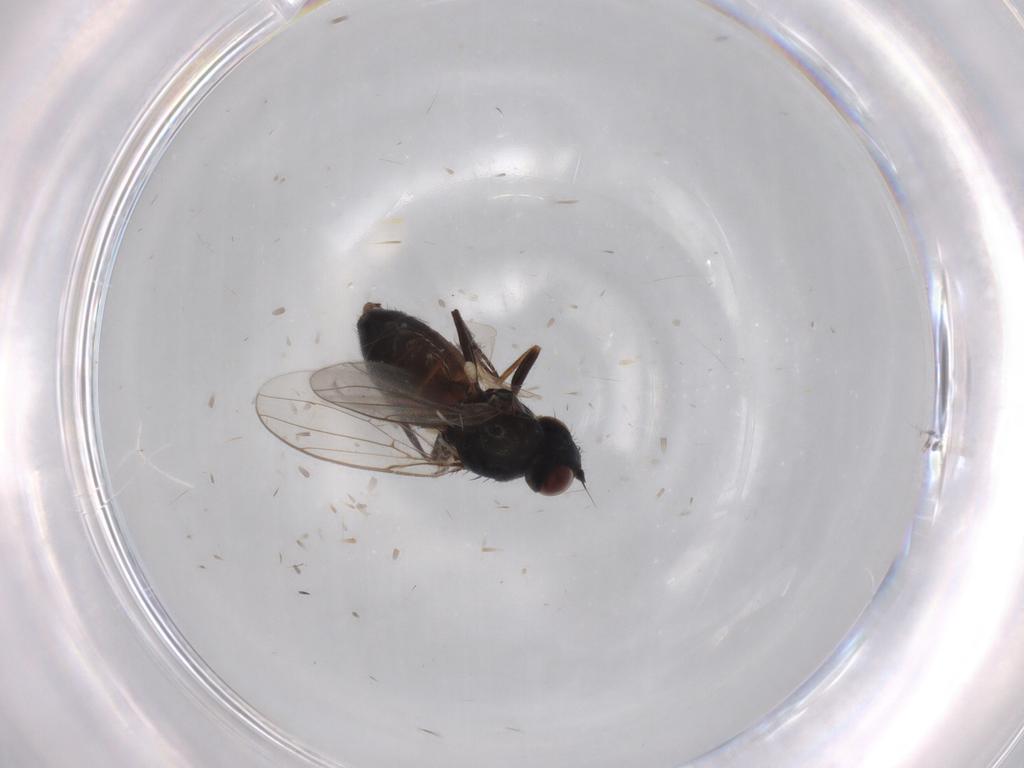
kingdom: Animalia
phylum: Arthropoda
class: Insecta
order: Diptera
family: Chloropidae
